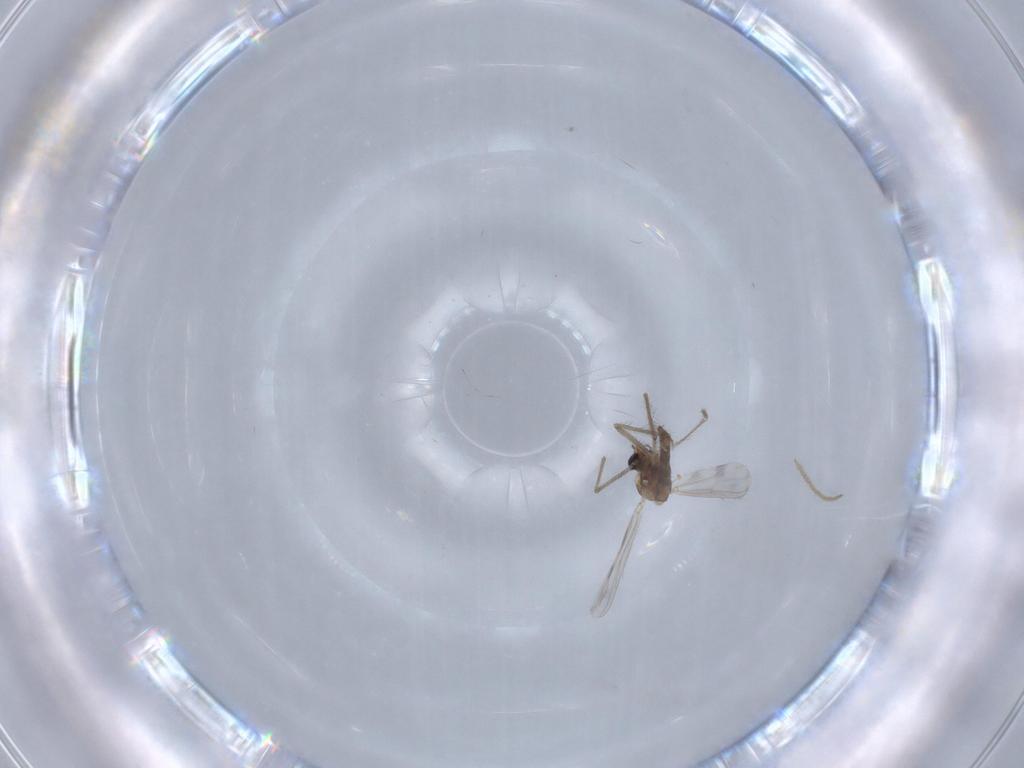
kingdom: Animalia
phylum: Arthropoda
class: Insecta
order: Diptera
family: Chironomidae
